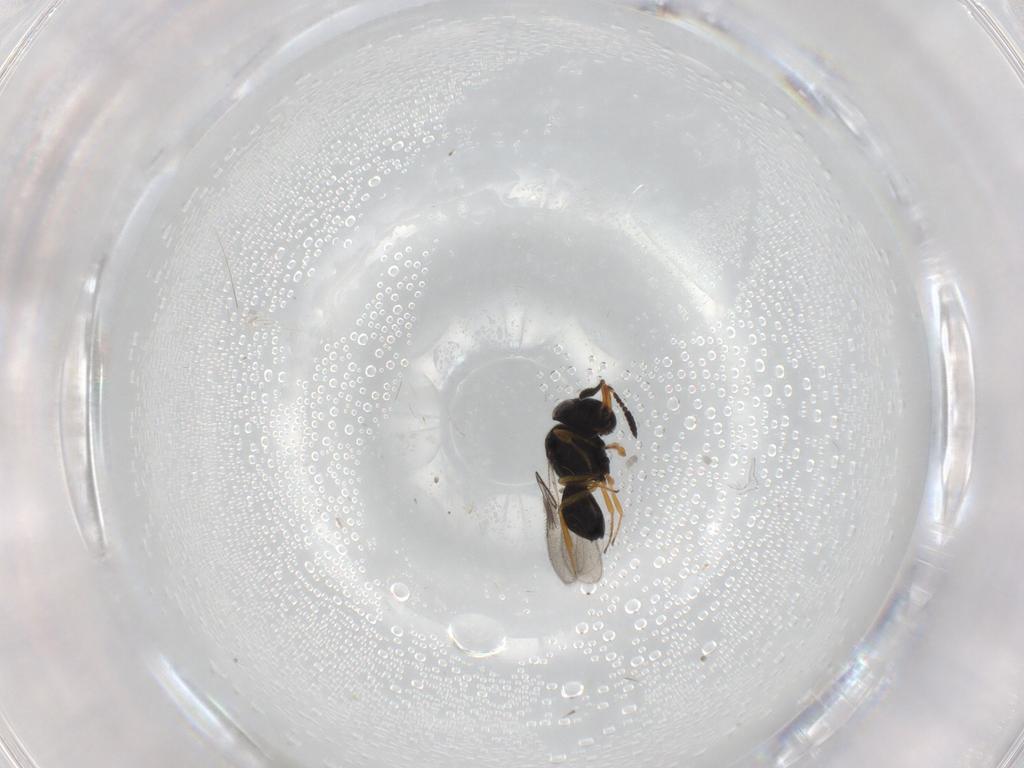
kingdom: Animalia
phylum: Arthropoda
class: Insecta
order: Hymenoptera
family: Scelionidae
